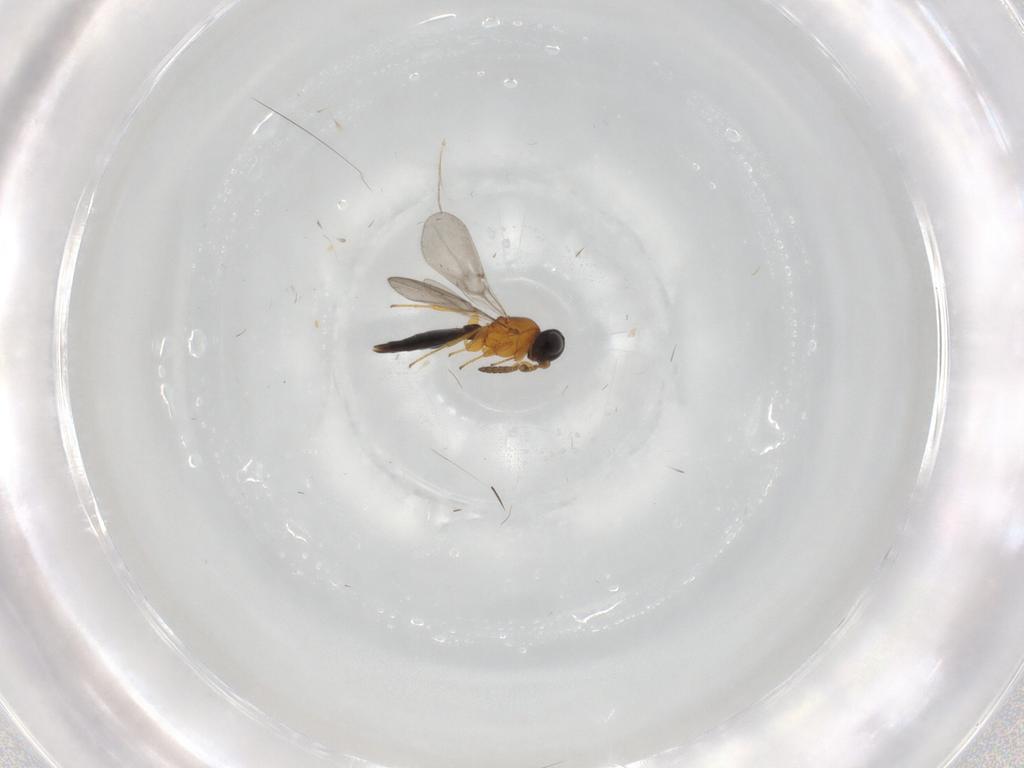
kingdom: Animalia
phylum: Arthropoda
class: Insecta
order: Hymenoptera
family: Platygastridae
